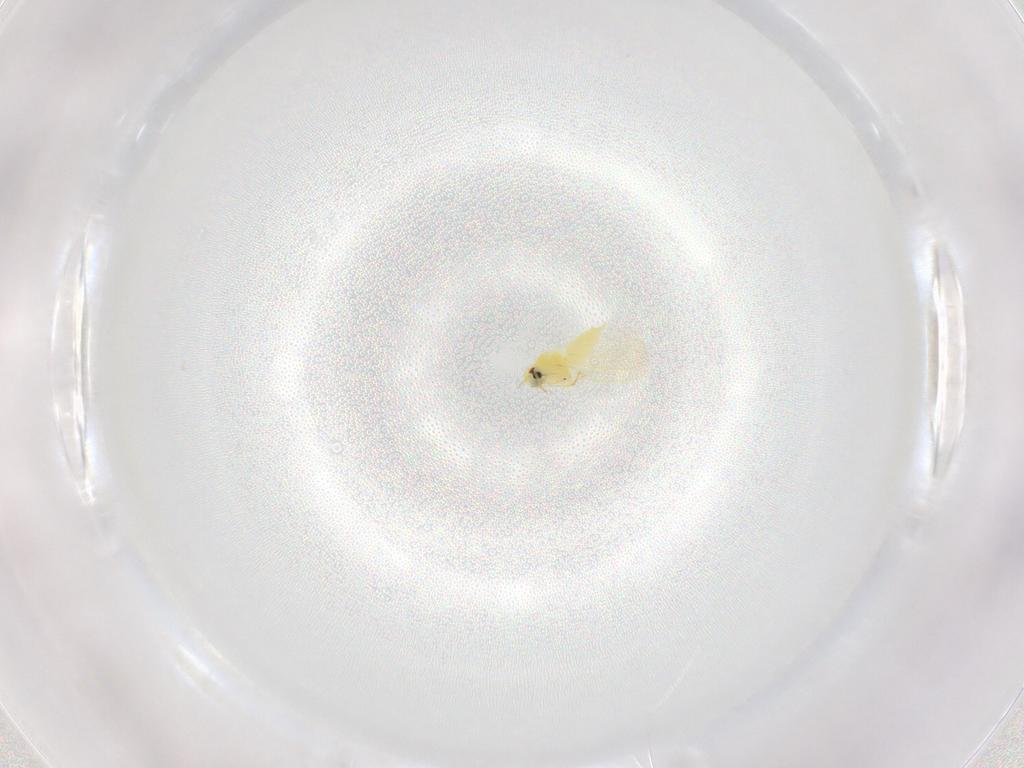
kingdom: Animalia
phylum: Arthropoda
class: Insecta
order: Hemiptera
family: Aleyrodidae
